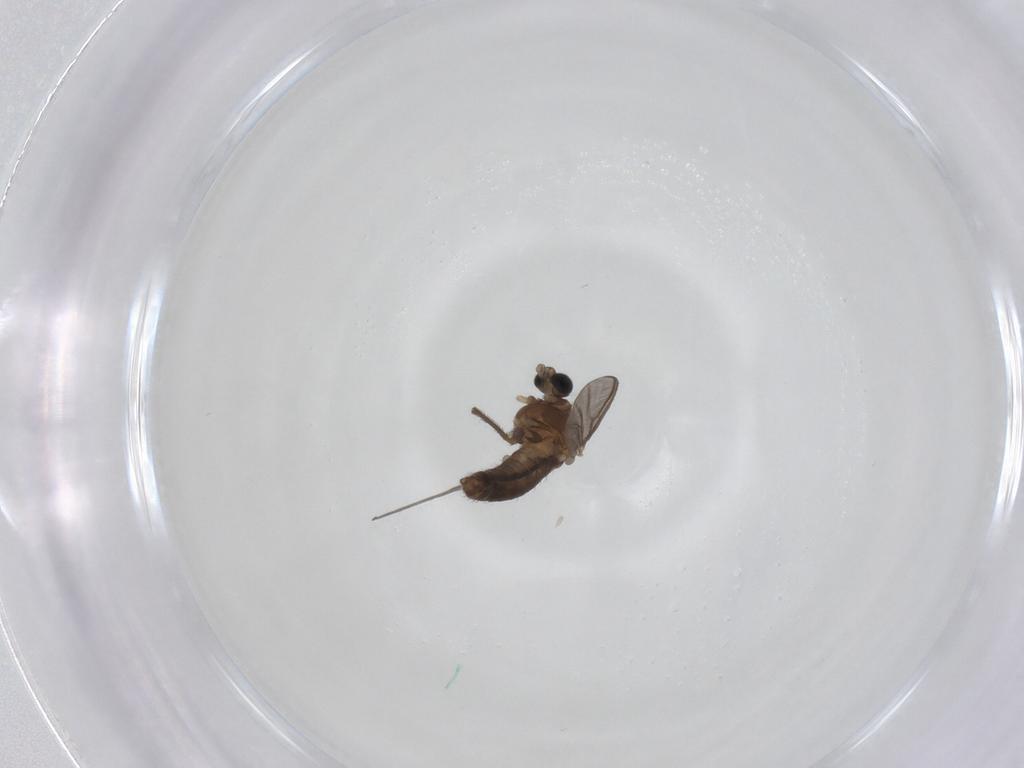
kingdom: Animalia
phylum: Arthropoda
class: Insecta
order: Diptera
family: Chironomidae
